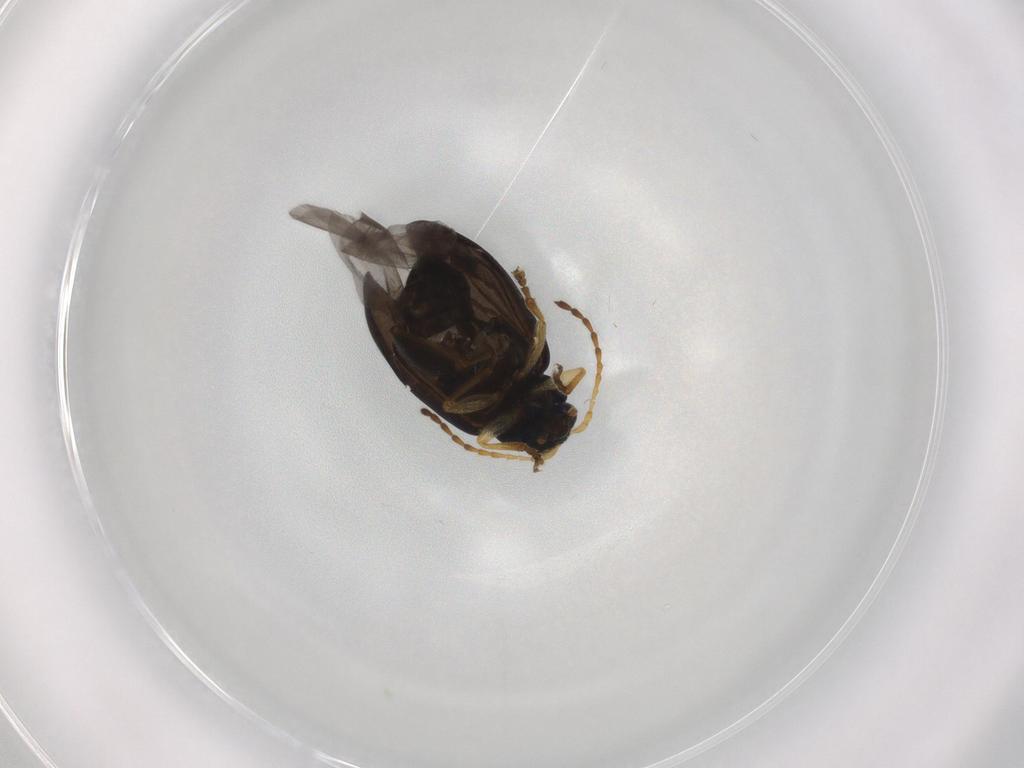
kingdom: Animalia
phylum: Arthropoda
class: Insecta
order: Coleoptera
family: Chrysomelidae
